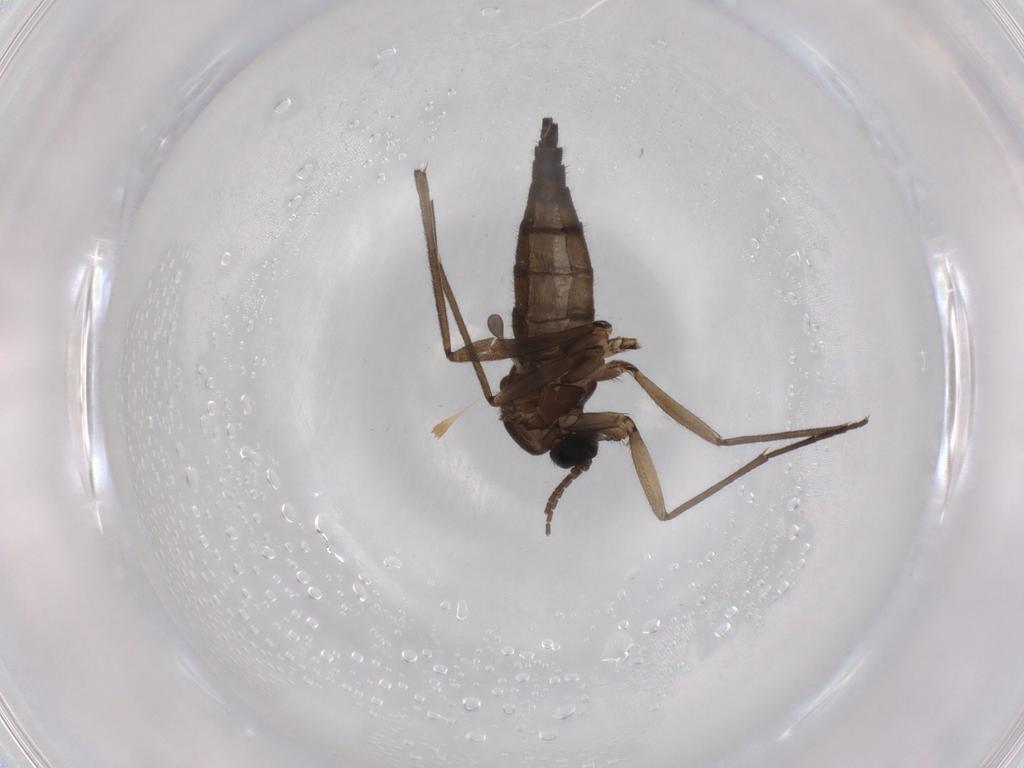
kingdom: Animalia
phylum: Arthropoda
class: Insecta
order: Diptera
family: Sciaridae
